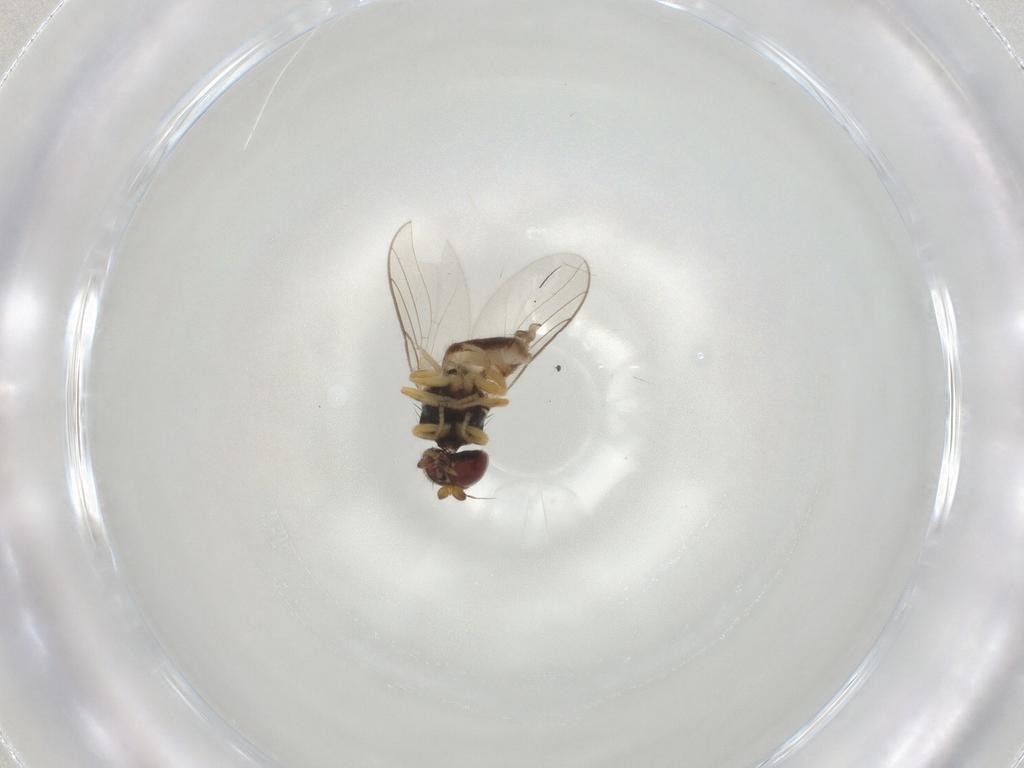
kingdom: Animalia
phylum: Arthropoda
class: Insecta
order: Diptera
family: Chloropidae
